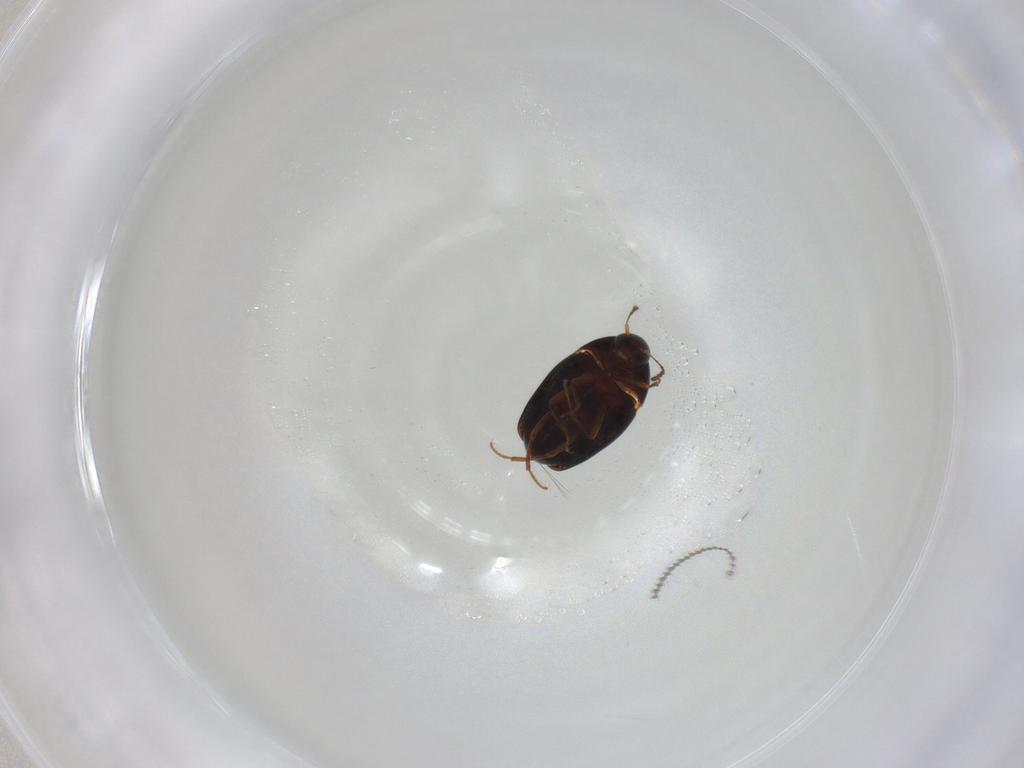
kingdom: Animalia
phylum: Arthropoda
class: Insecta
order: Coleoptera
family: Staphylinidae
